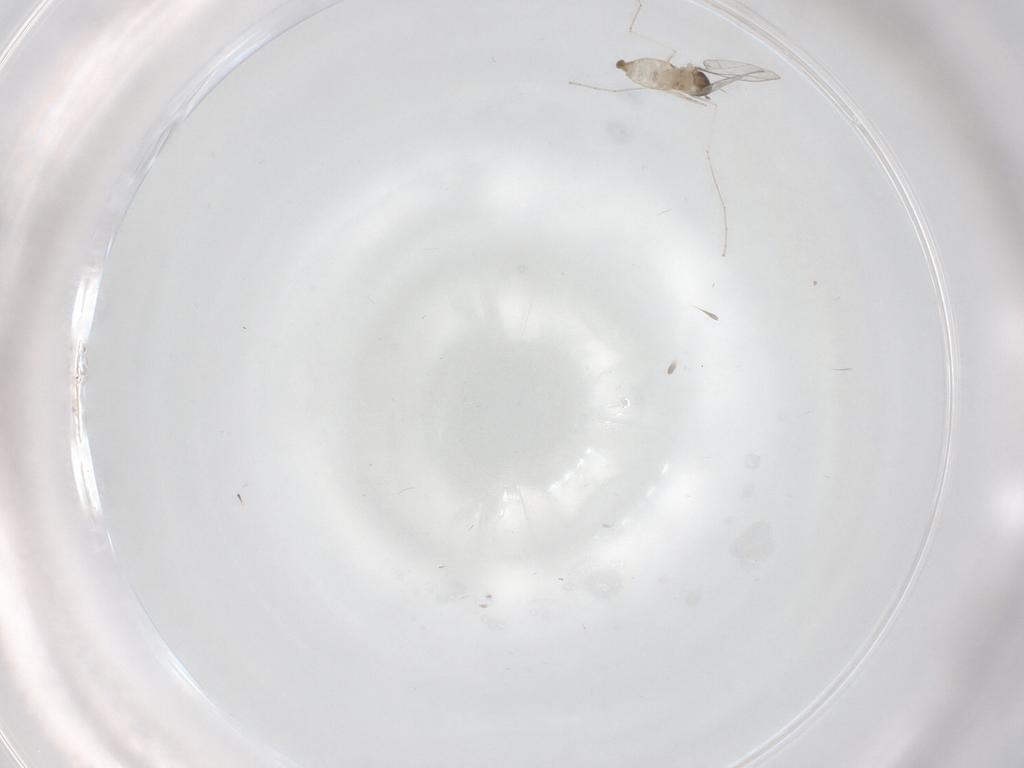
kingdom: Animalia
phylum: Arthropoda
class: Insecta
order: Diptera
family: Cecidomyiidae
